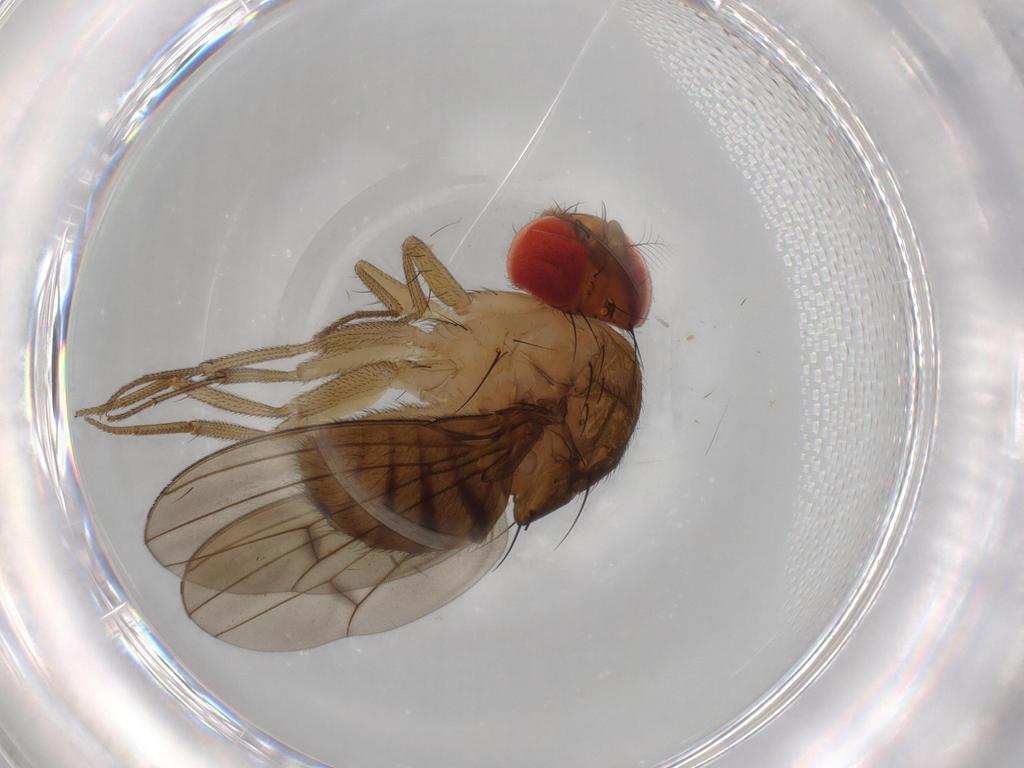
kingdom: Animalia
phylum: Arthropoda
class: Insecta
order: Diptera
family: Drosophilidae
